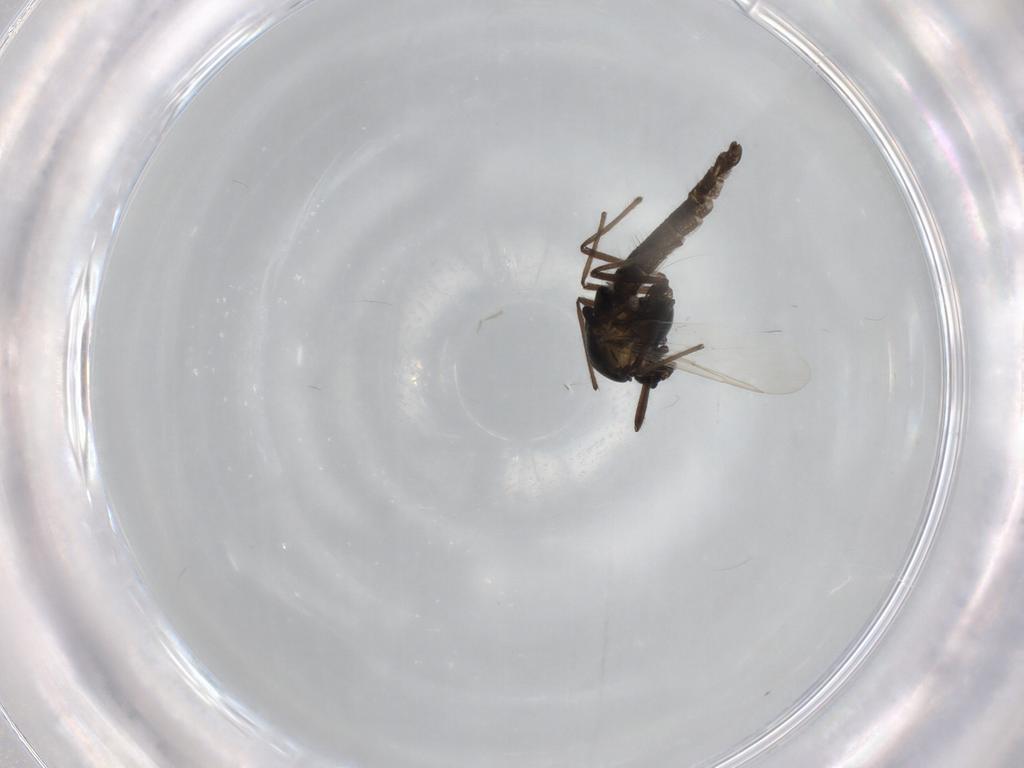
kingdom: Animalia
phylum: Arthropoda
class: Insecta
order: Diptera
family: Chironomidae
